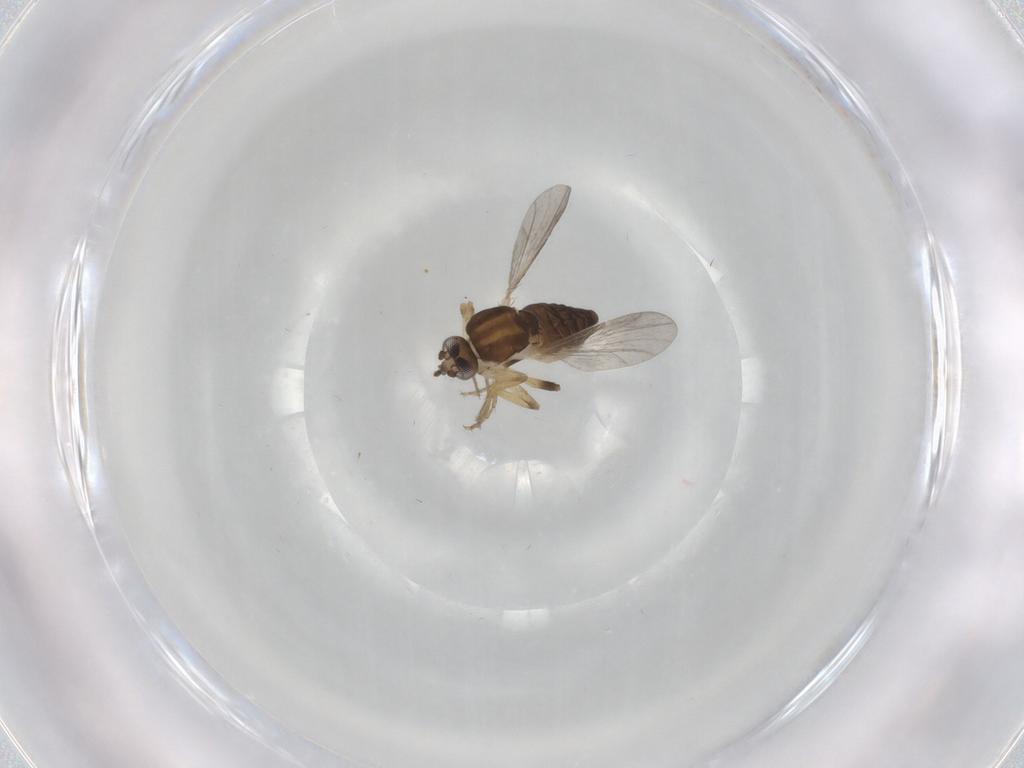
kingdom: Animalia
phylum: Arthropoda
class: Insecta
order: Diptera
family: Ceratopogonidae
